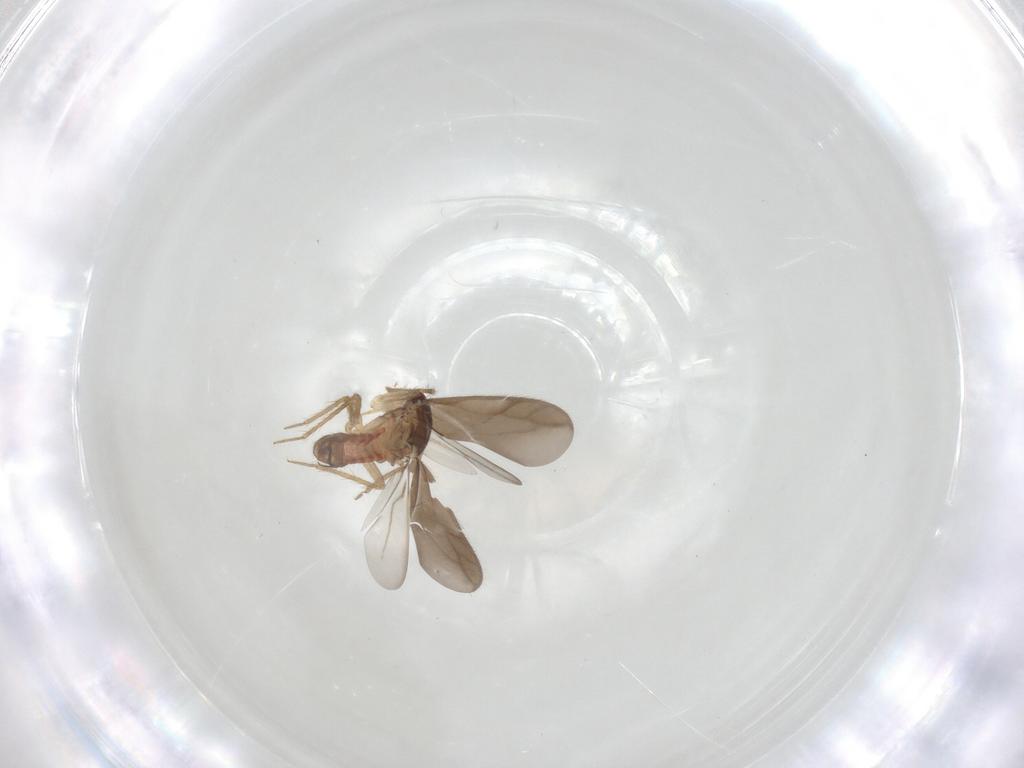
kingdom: Animalia
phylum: Arthropoda
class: Insecta
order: Hemiptera
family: Ceratocombidae
